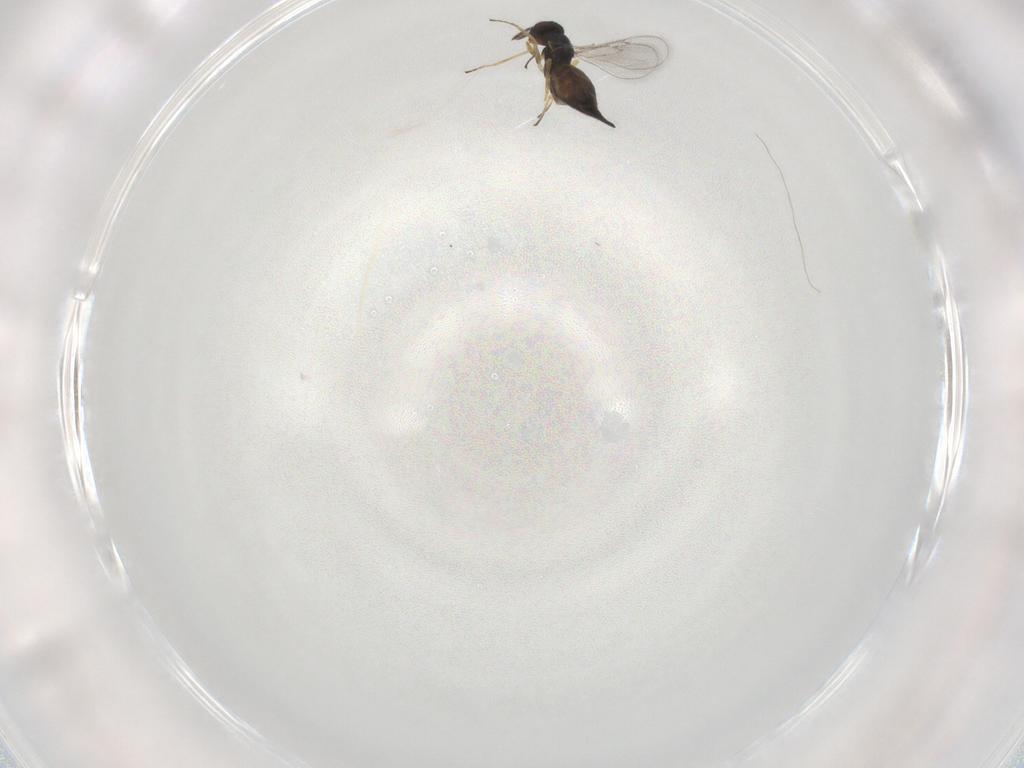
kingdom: Animalia
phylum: Arthropoda
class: Insecta
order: Hymenoptera
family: Eulophidae
